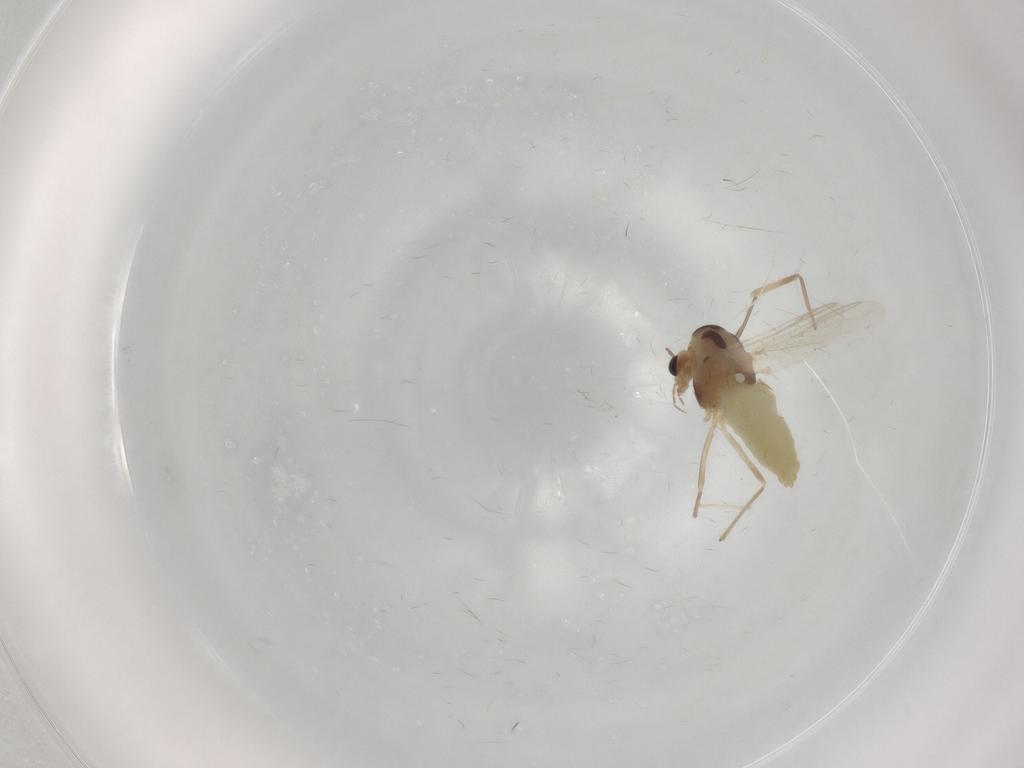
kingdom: Animalia
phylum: Arthropoda
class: Insecta
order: Diptera
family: Chironomidae
